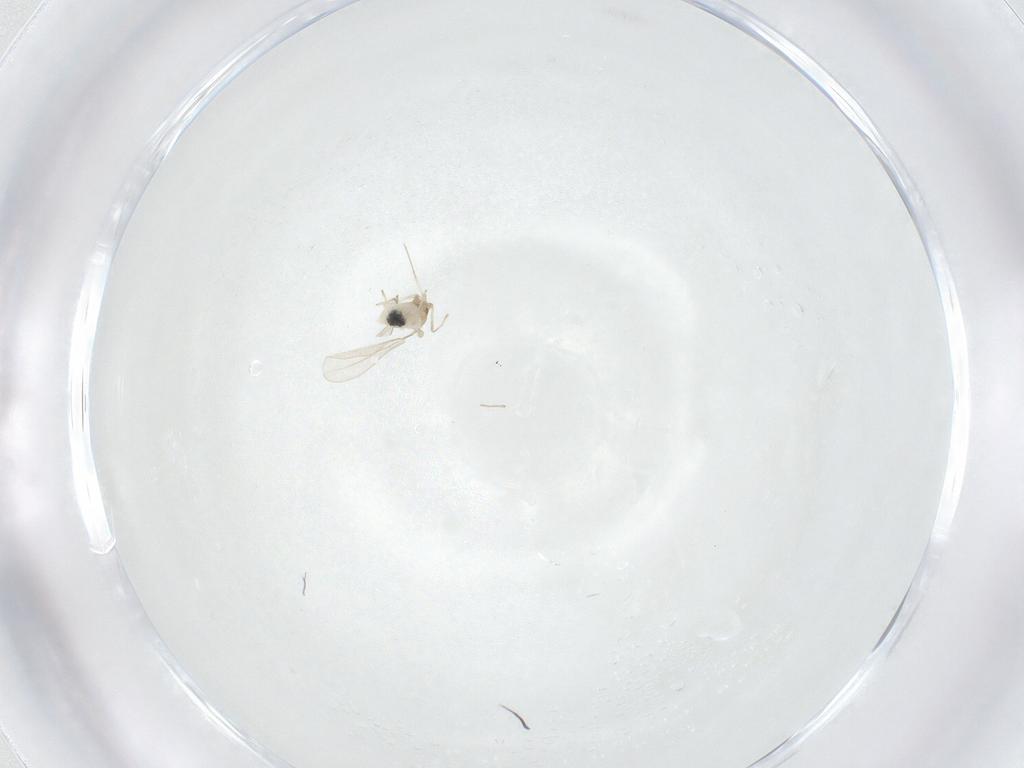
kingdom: Animalia
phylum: Arthropoda
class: Insecta
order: Diptera
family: Cecidomyiidae
